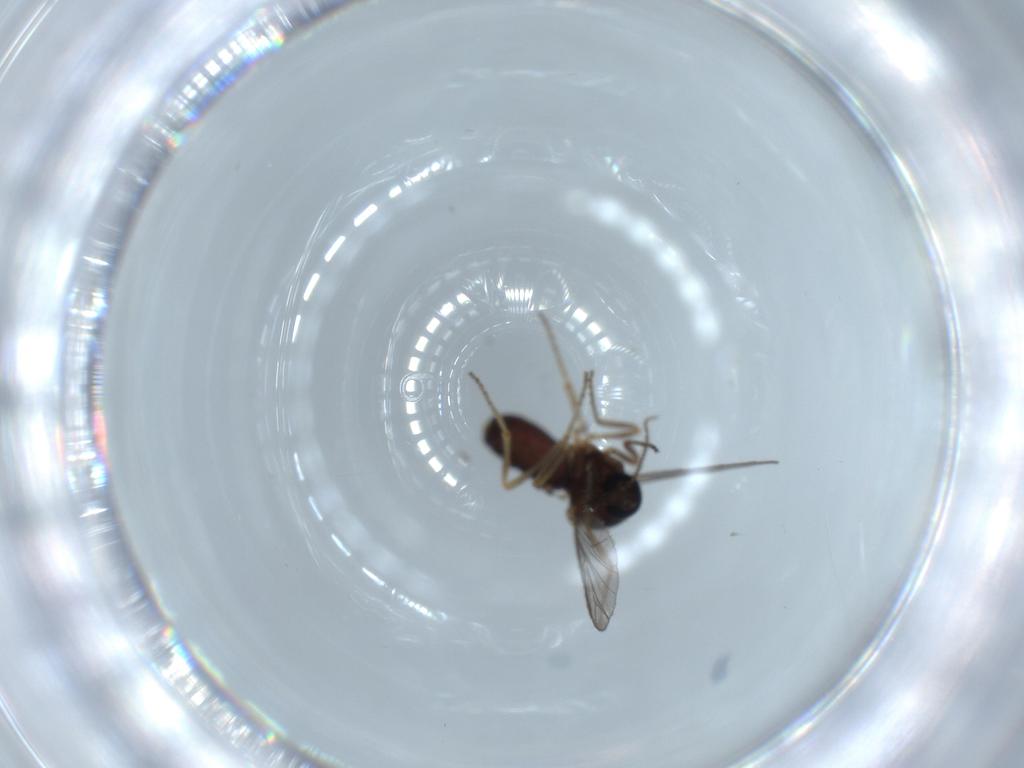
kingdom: Animalia
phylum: Arthropoda
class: Insecta
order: Diptera
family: Ceratopogonidae
